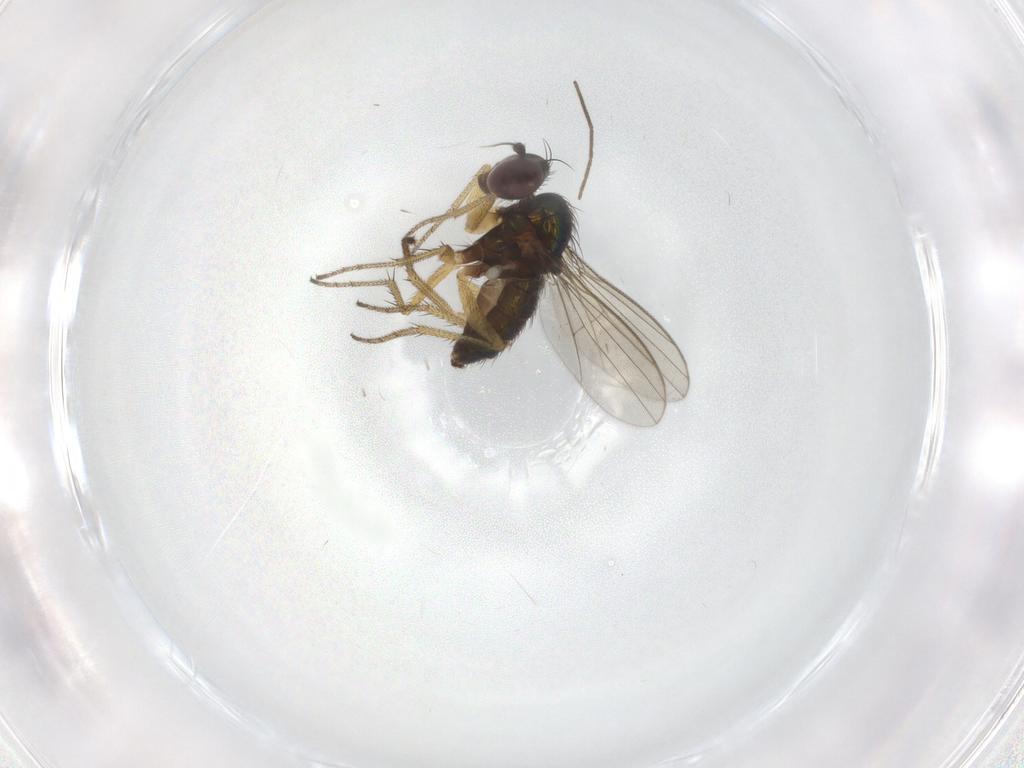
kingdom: Animalia
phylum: Arthropoda
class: Insecta
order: Diptera
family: Chironomidae
